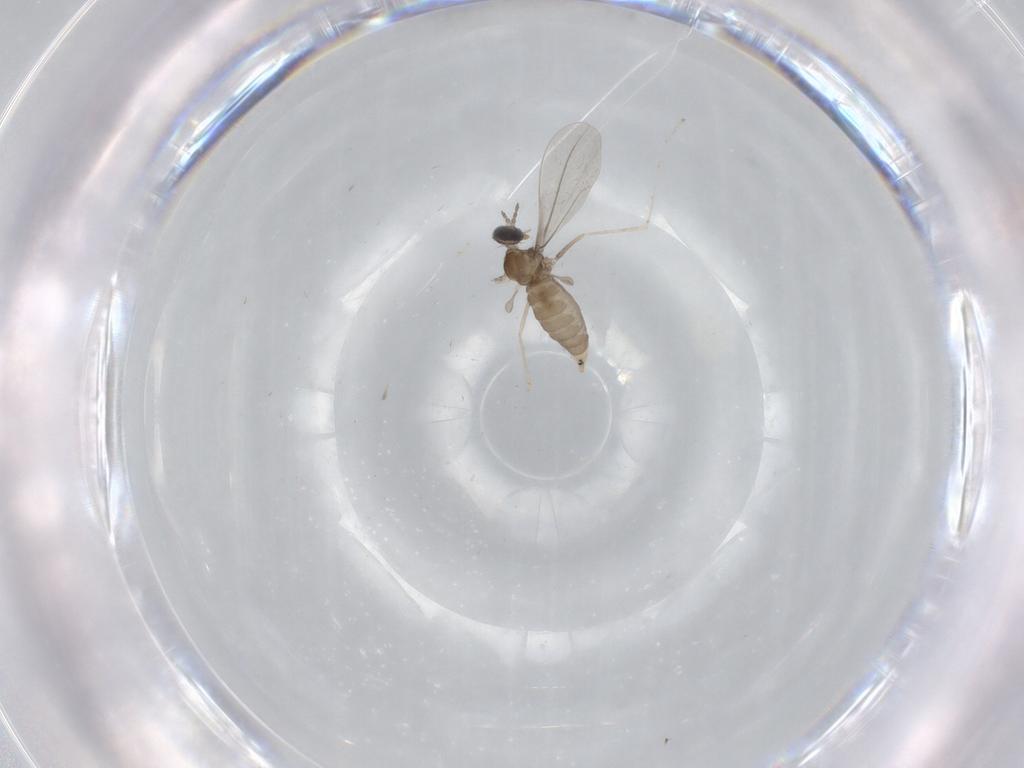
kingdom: Animalia
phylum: Arthropoda
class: Insecta
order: Diptera
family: Cecidomyiidae
